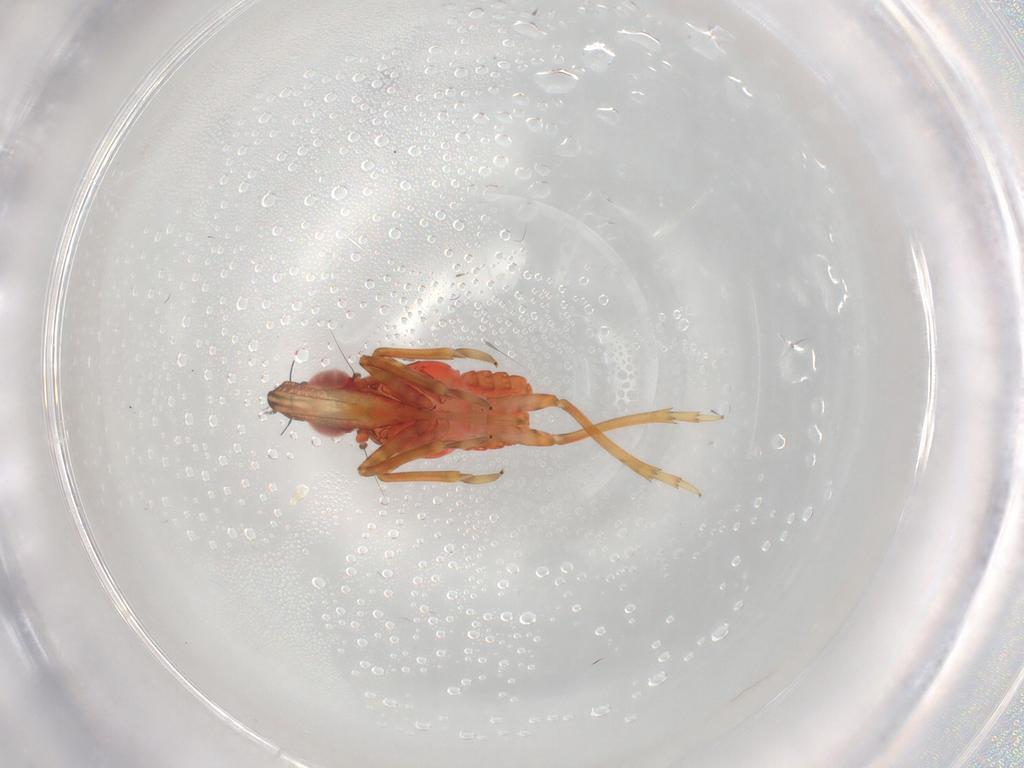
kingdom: Animalia
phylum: Arthropoda
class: Insecta
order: Hemiptera
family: Fulgoroidea_incertae_sedis
